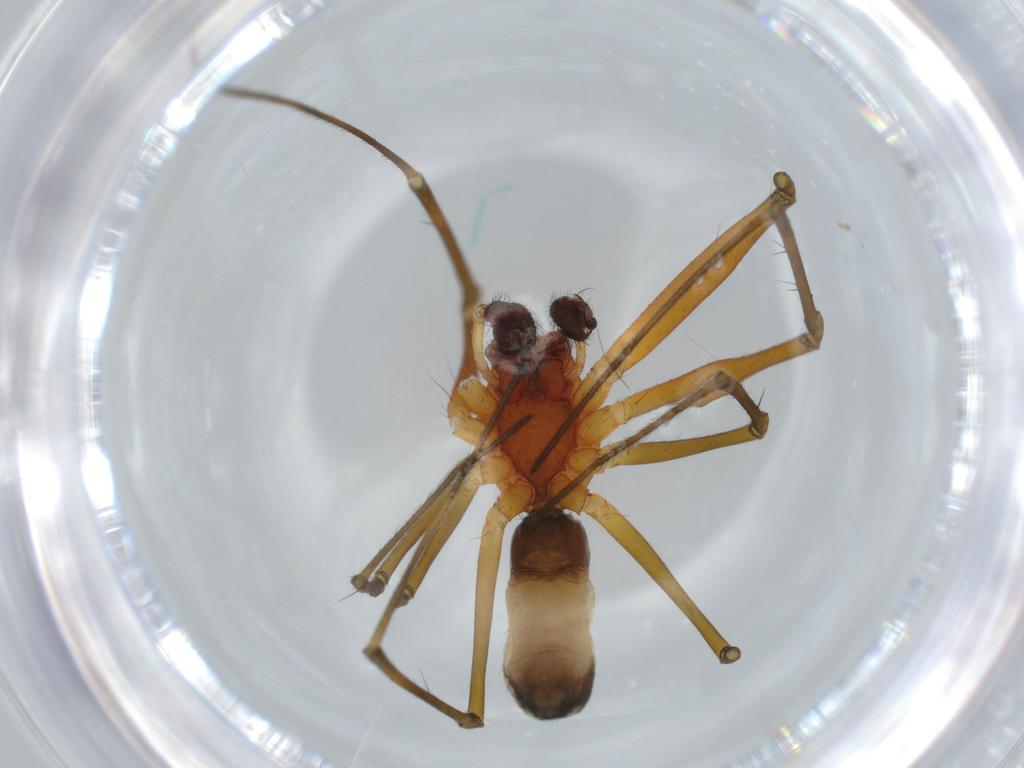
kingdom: Animalia
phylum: Arthropoda
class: Arachnida
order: Araneae
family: Linyphiidae
